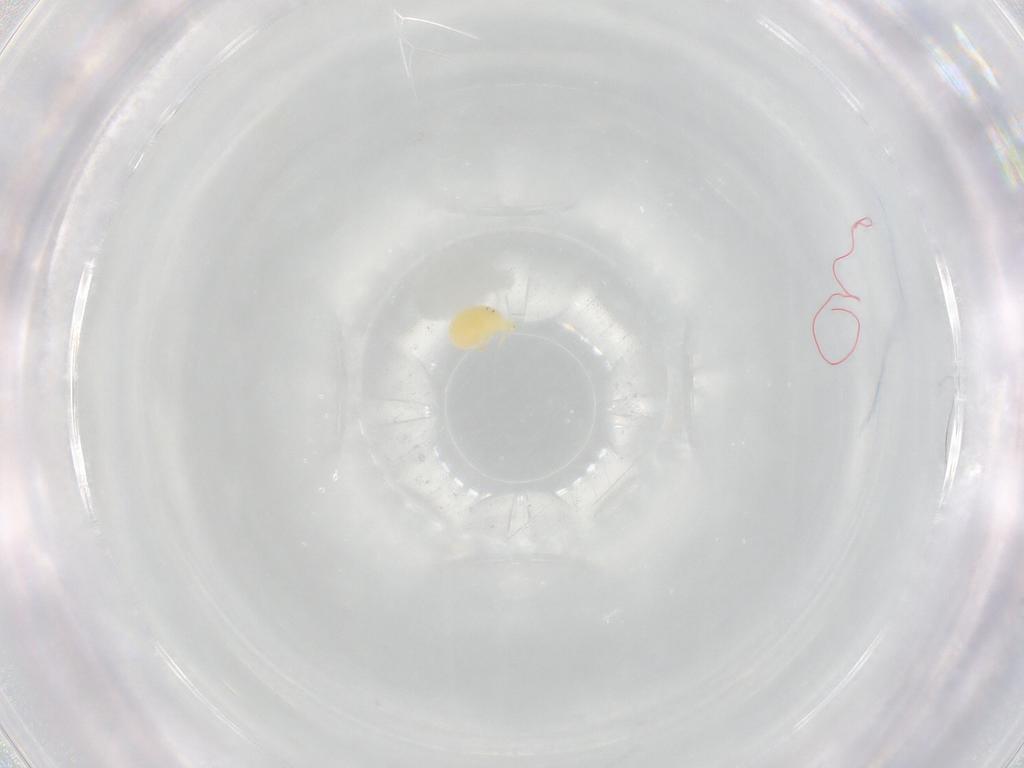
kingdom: Animalia
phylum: Arthropoda
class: Arachnida
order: Trombidiformes
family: Hydryphantidae
